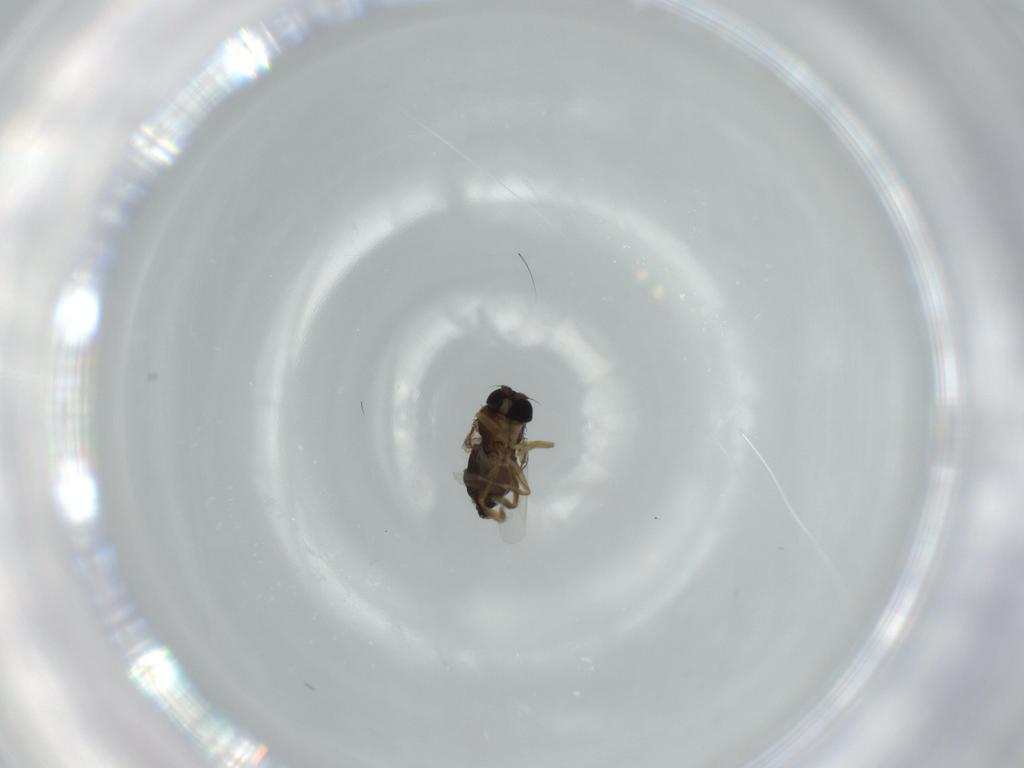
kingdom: Animalia
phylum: Arthropoda
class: Insecta
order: Diptera
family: Phoridae
